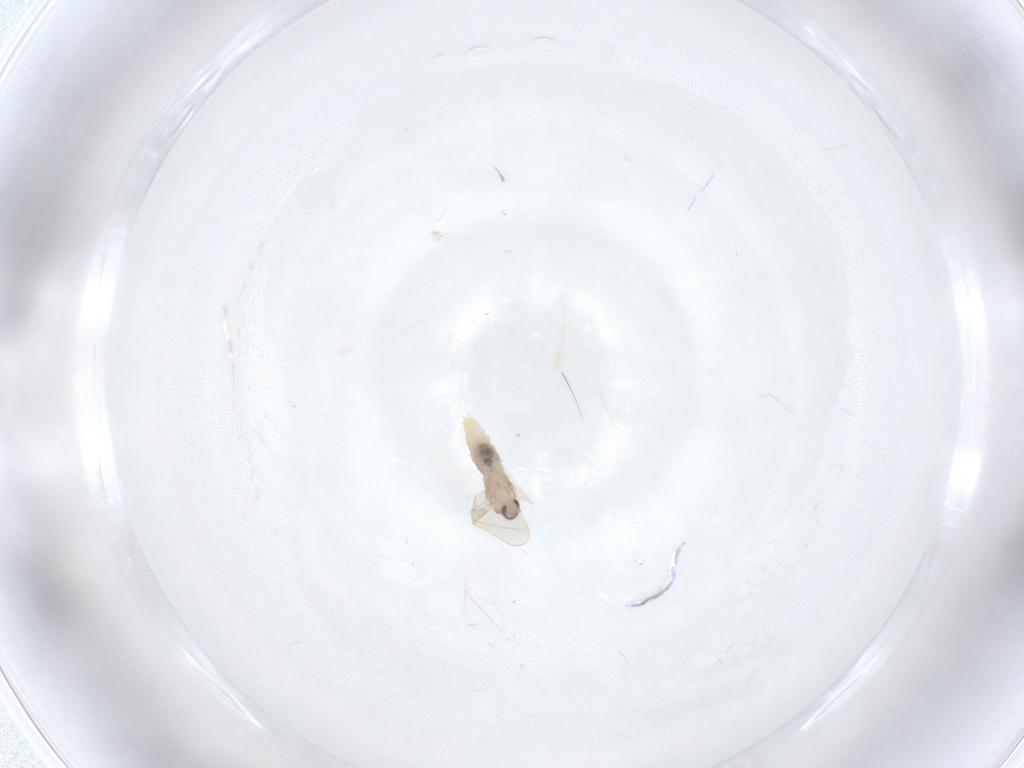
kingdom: Animalia
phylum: Arthropoda
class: Insecta
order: Diptera
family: Cecidomyiidae
